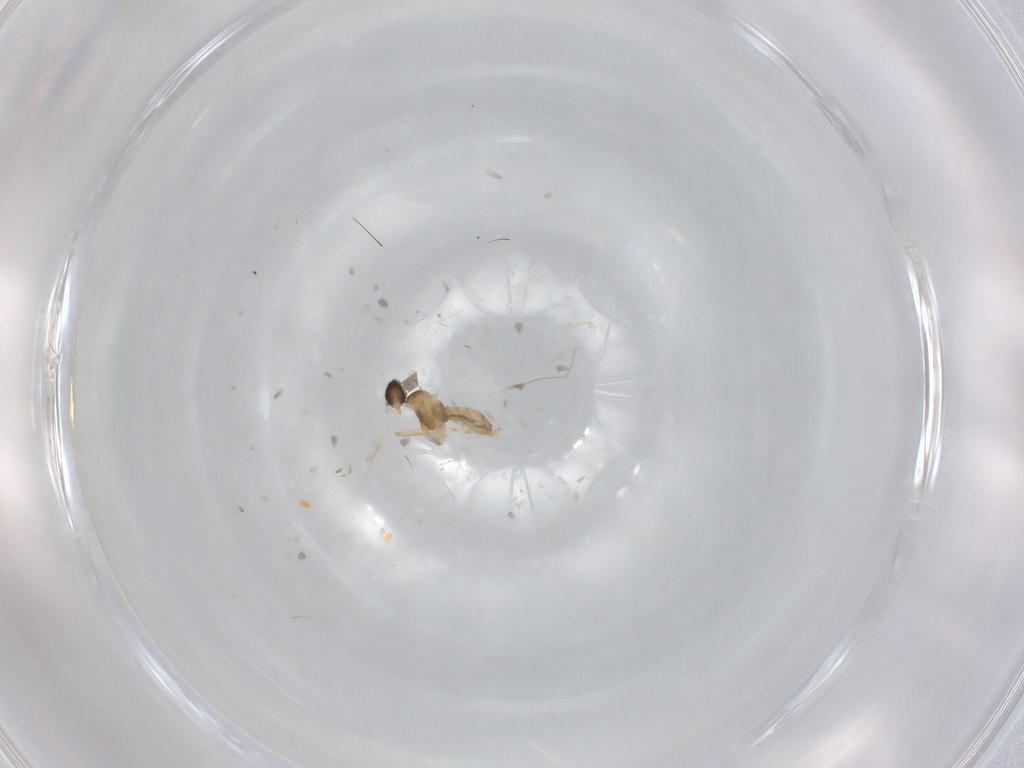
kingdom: Animalia
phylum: Arthropoda
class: Insecta
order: Diptera
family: Cecidomyiidae
